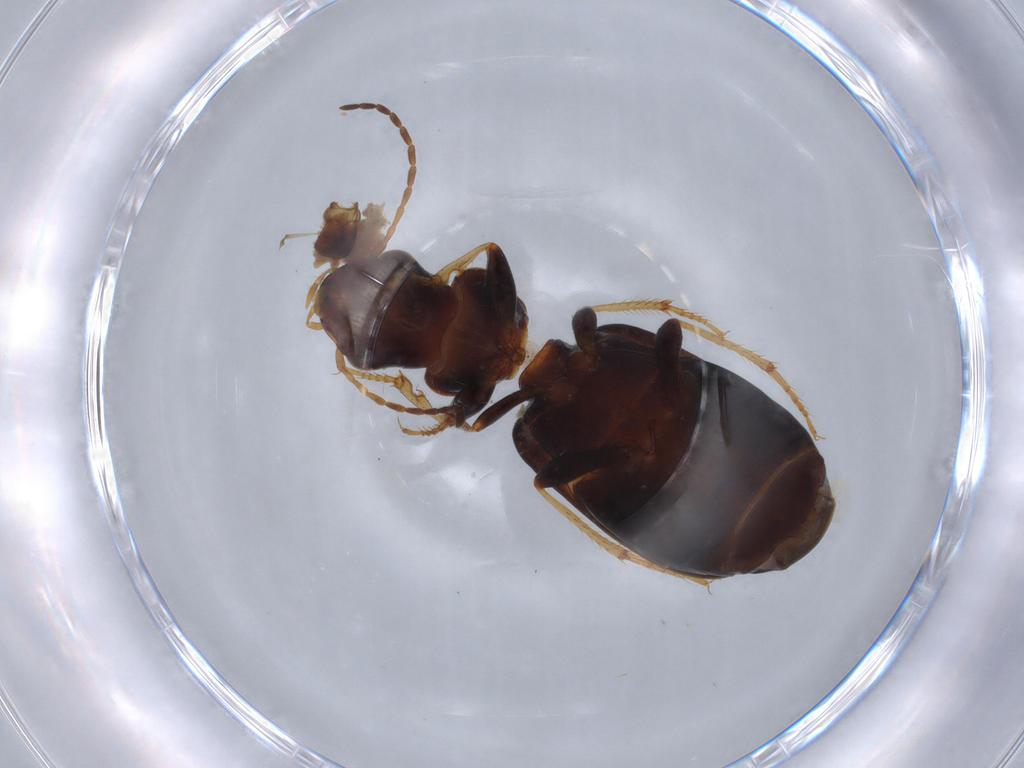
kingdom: Animalia
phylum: Arthropoda
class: Insecta
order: Coleoptera
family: Carabidae
